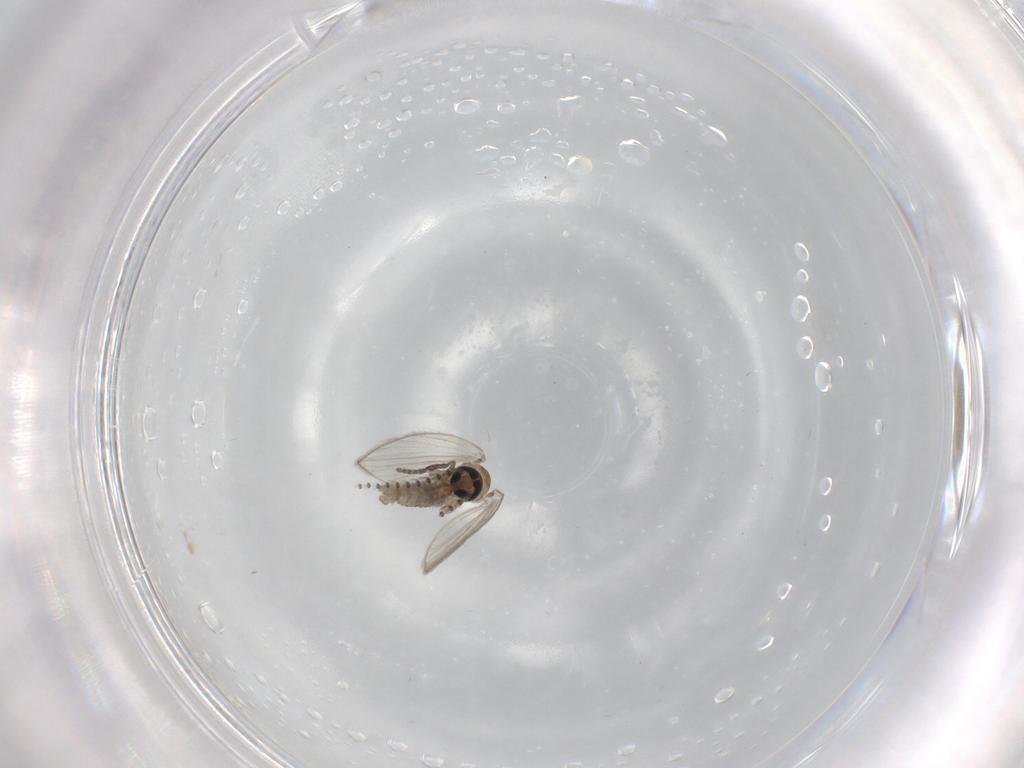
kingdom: Animalia
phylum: Arthropoda
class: Insecta
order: Diptera
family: Psychodidae
